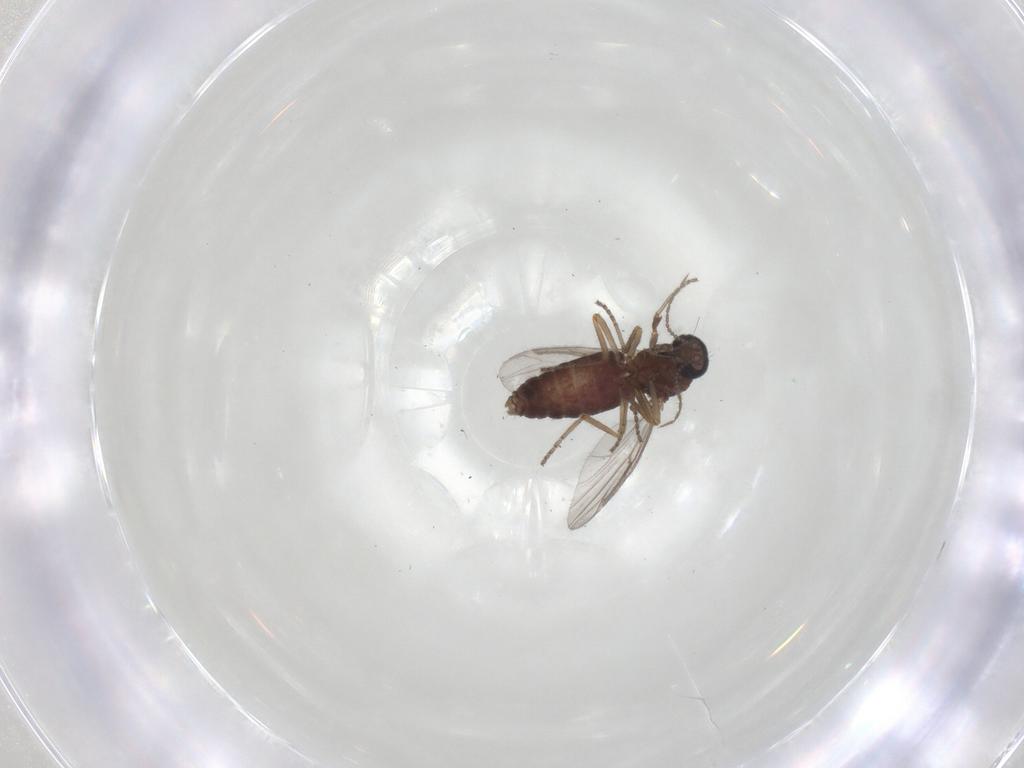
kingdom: Animalia
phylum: Arthropoda
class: Insecta
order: Diptera
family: Ceratopogonidae
